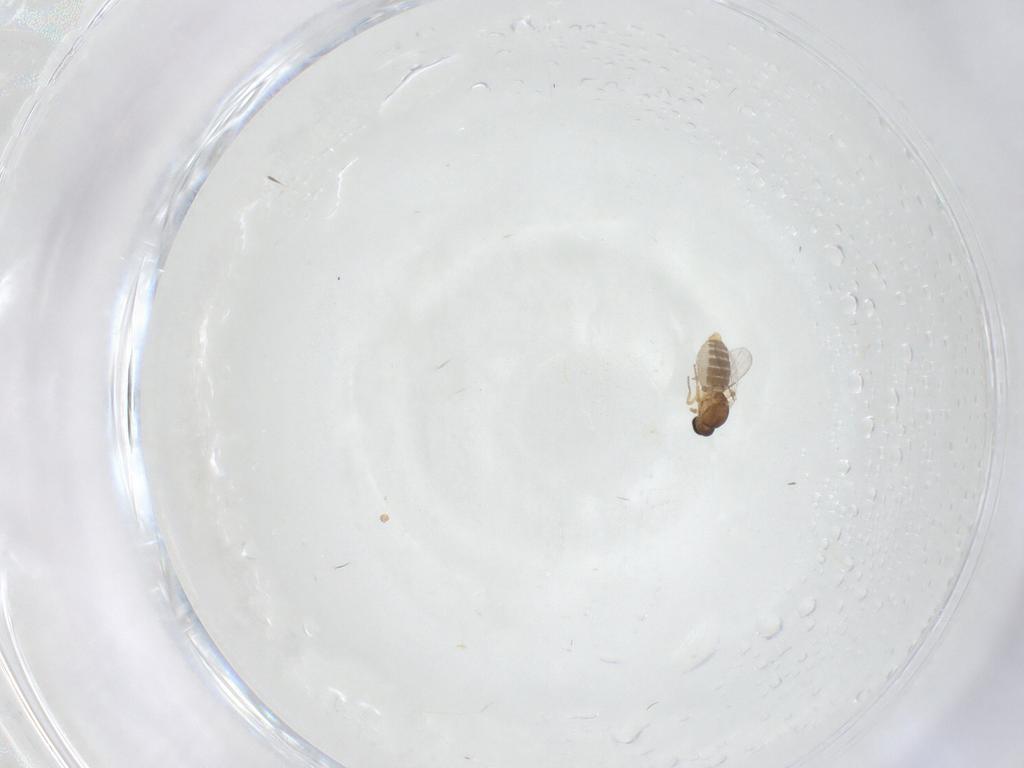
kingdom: Animalia
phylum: Arthropoda
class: Insecta
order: Diptera
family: Ceratopogonidae
